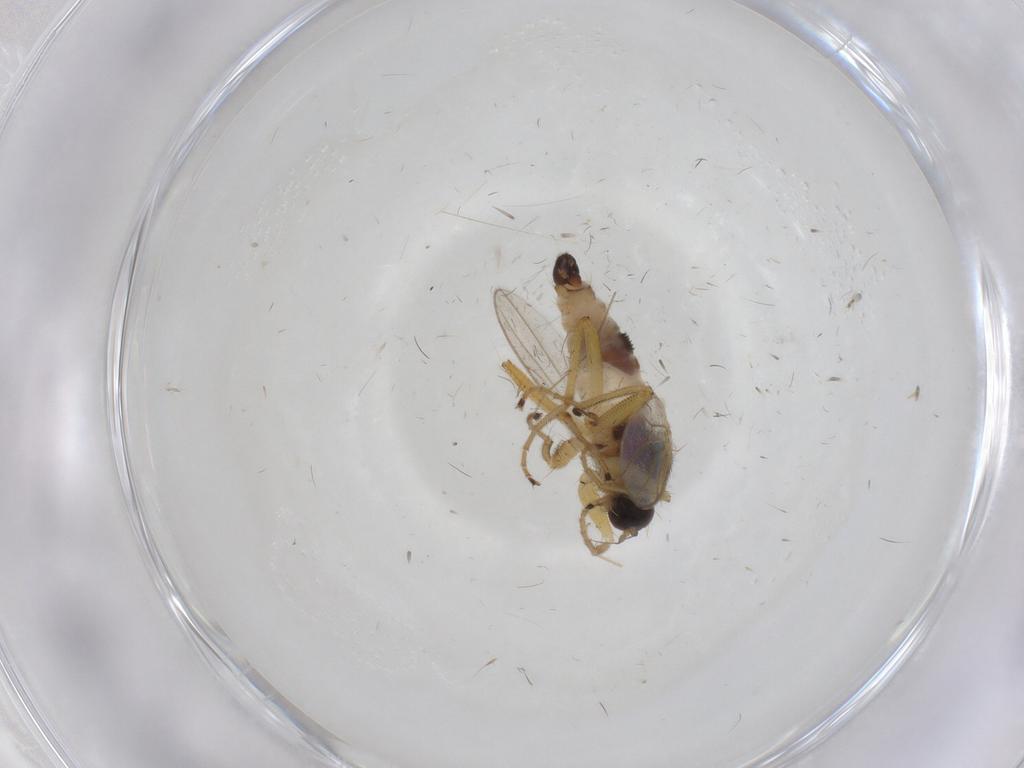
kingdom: Animalia
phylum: Arthropoda
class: Insecta
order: Diptera
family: Hybotidae
